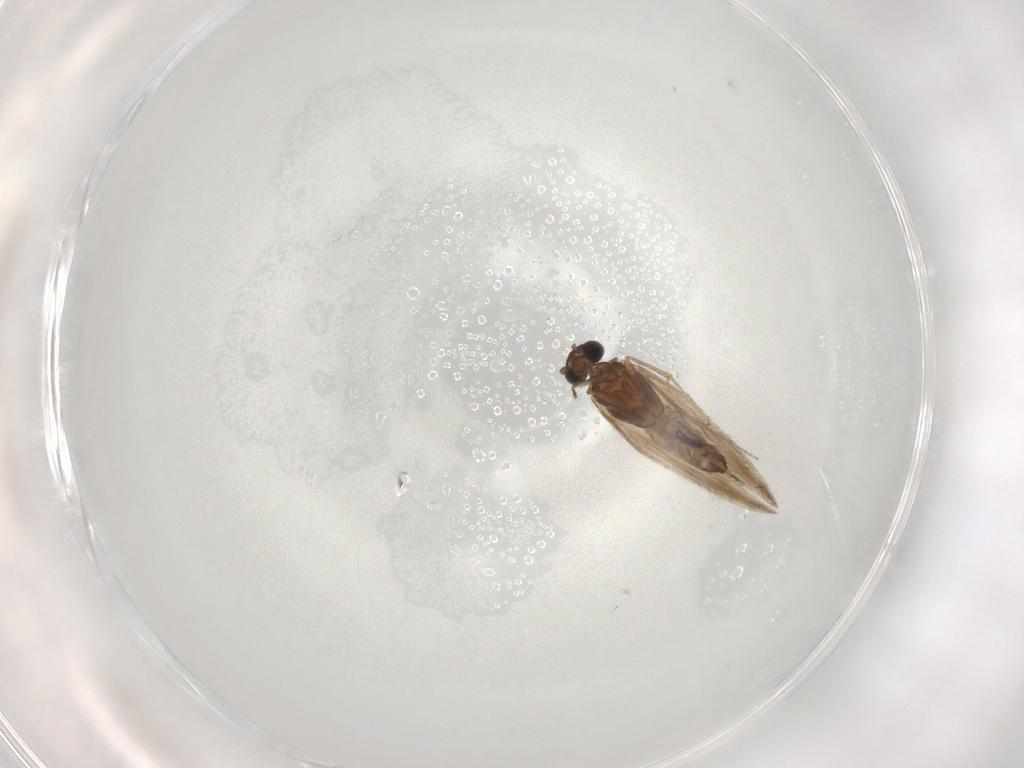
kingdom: Animalia
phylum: Arthropoda
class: Insecta
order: Trichoptera
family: Hydroptilidae
